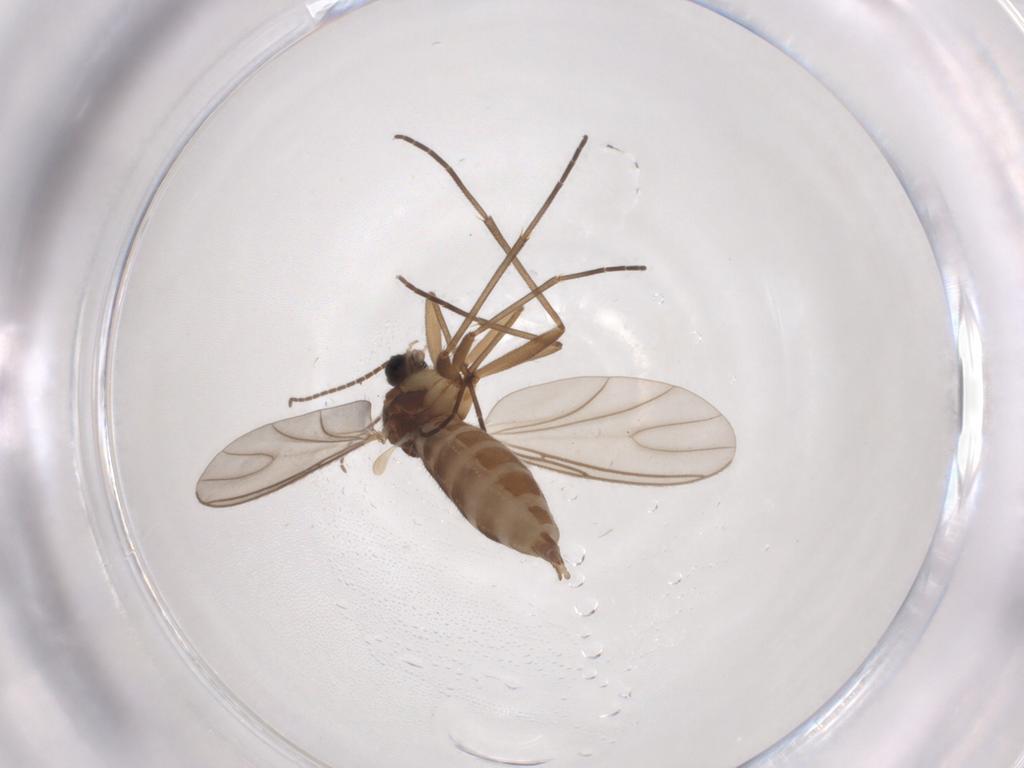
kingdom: Animalia
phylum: Arthropoda
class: Insecta
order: Diptera
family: Sciaridae
